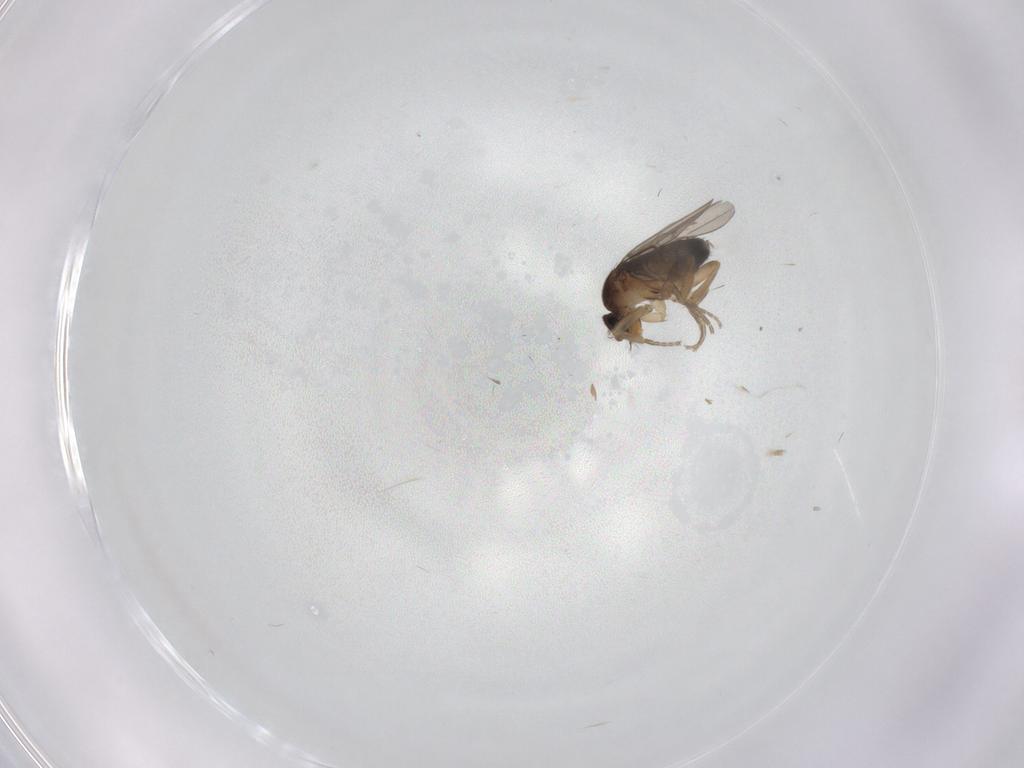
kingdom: Animalia
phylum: Arthropoda
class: Insecta
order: Diptera
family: Phoridae
